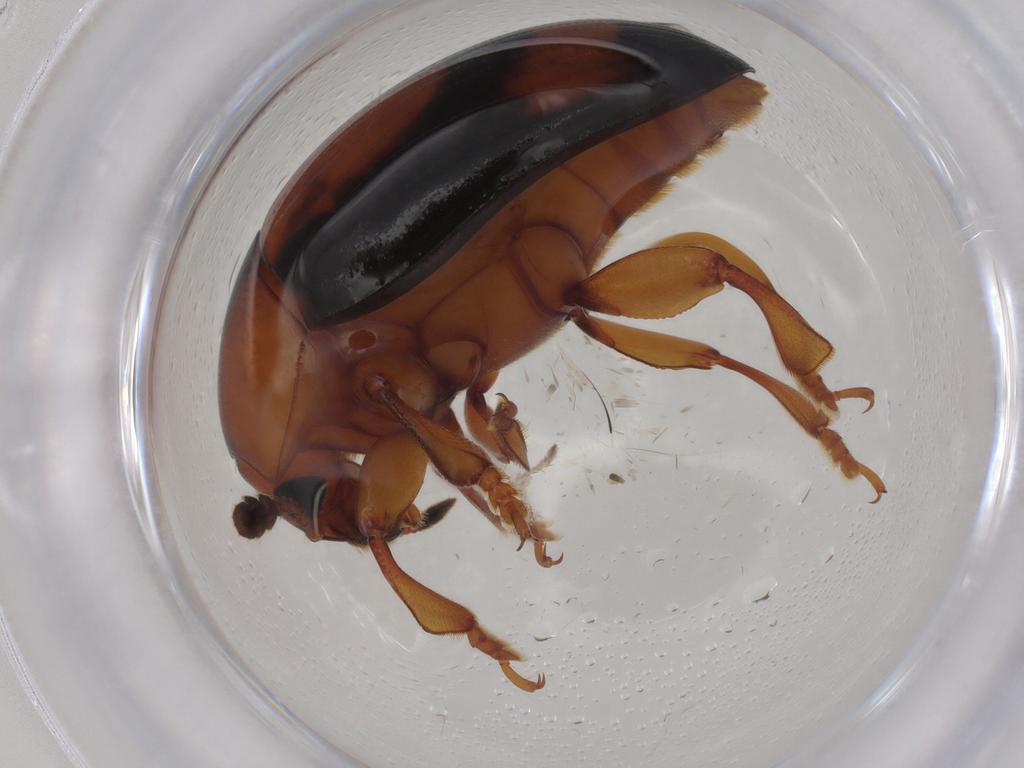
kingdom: Animalia
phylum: Arthropoda
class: Insecta
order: Coleoptera
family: Erotylidae
